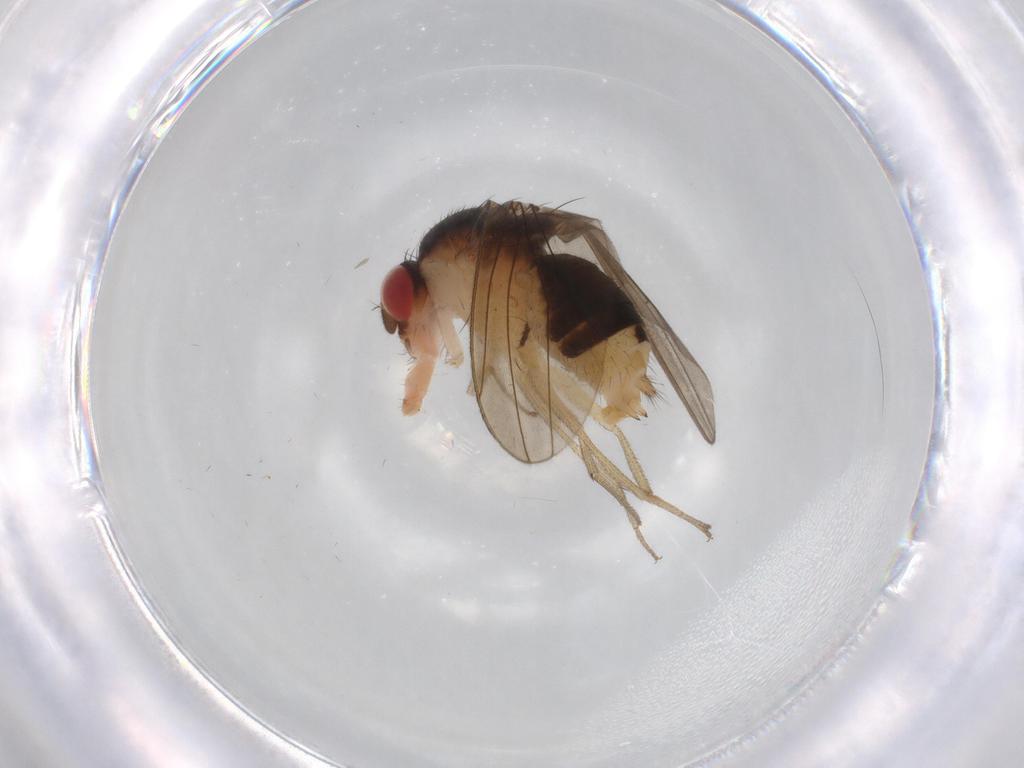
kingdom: Animalia
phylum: Arthropoda
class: Insecta
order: Diptera
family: Drosophilidae
